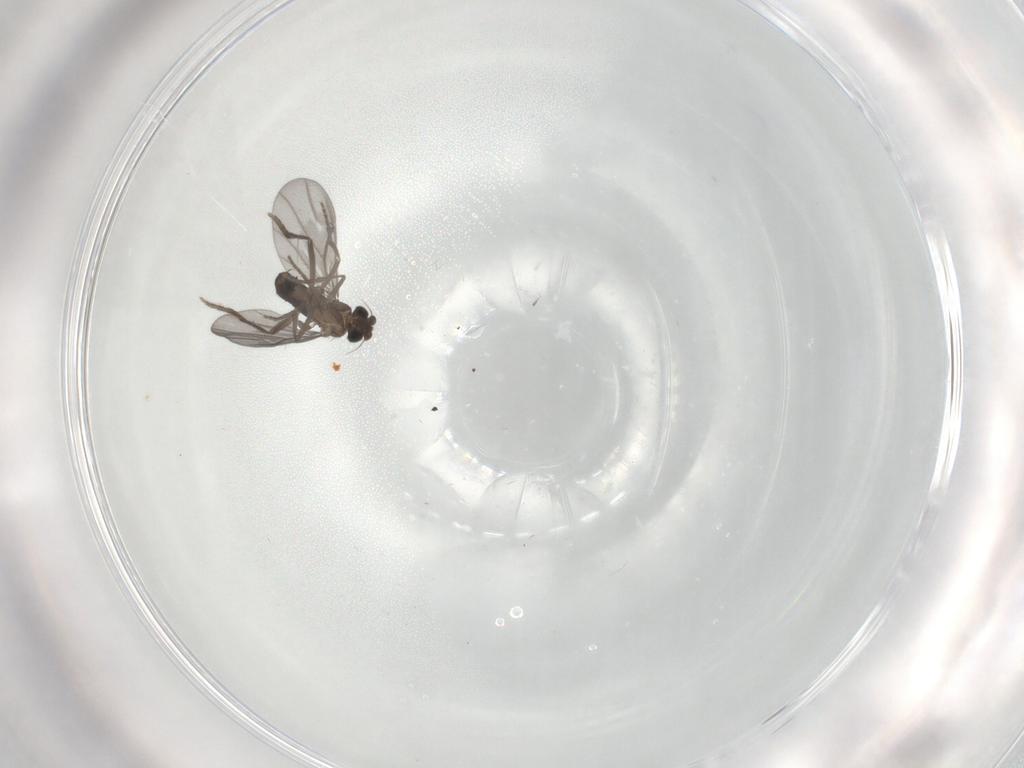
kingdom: Animalia
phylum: Arthropoda
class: Insecta
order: Diptera
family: Phoridae
